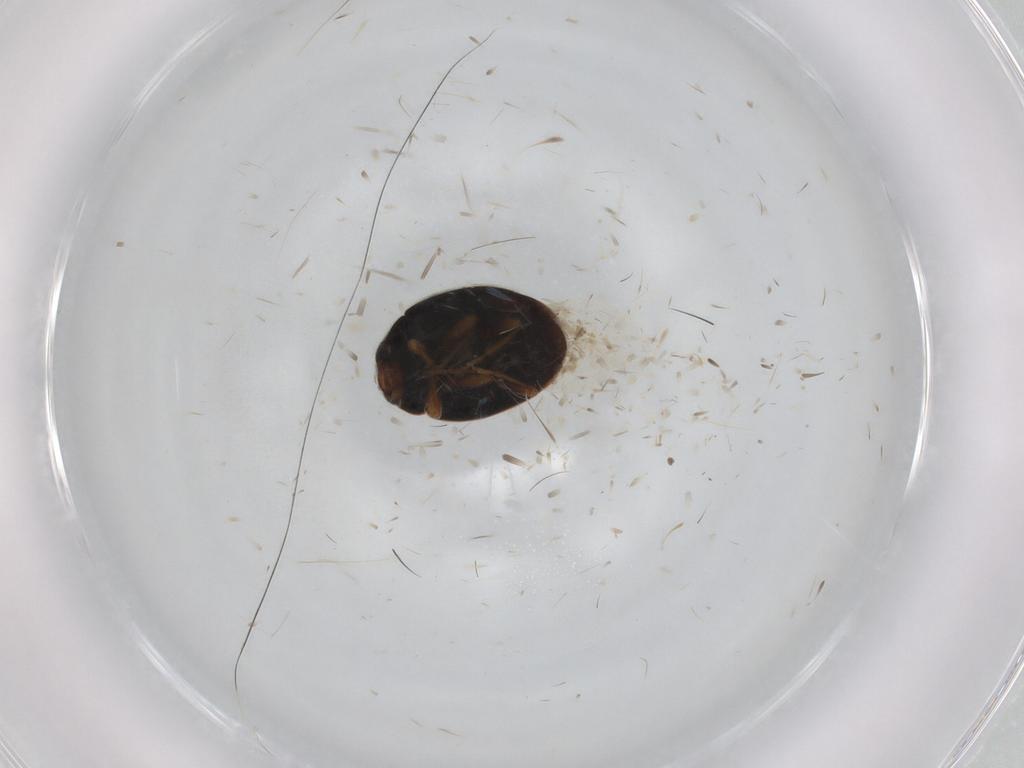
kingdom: Animalia
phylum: Arthropoda
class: Insecta
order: Coleoptera
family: Coccinellidae
